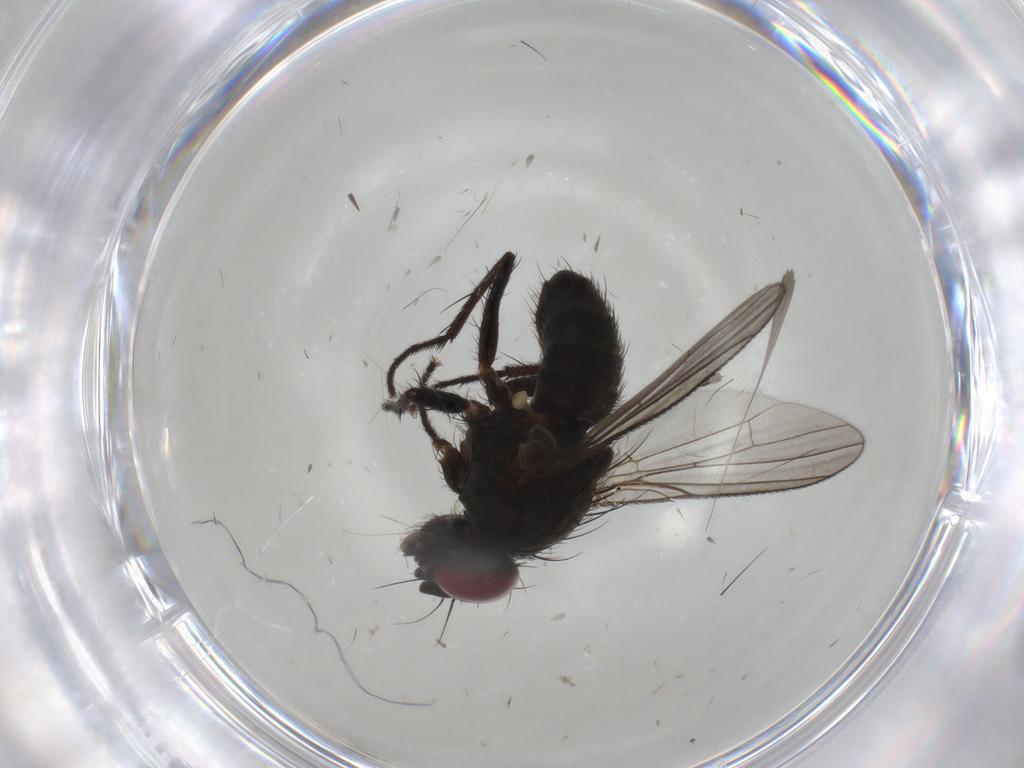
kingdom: Animalia
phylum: Arthropoda
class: Insecta
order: Diptera
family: Muscidae
